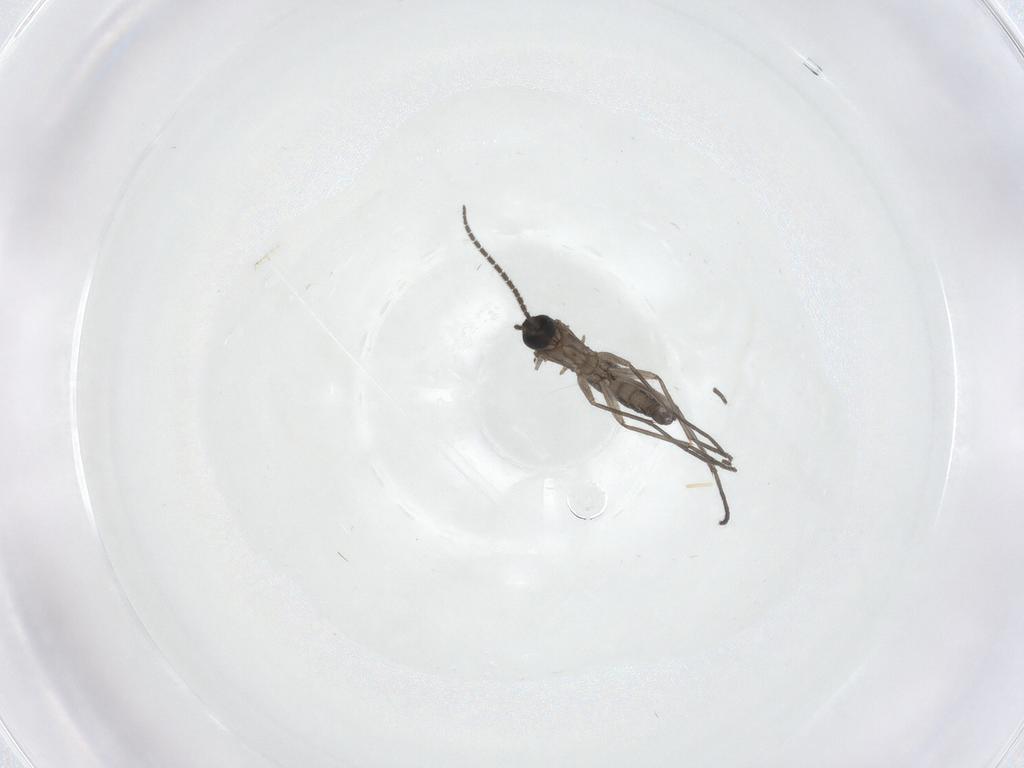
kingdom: Animalia
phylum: Arthropoda
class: Insecta
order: Diptera
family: Sciaridae
